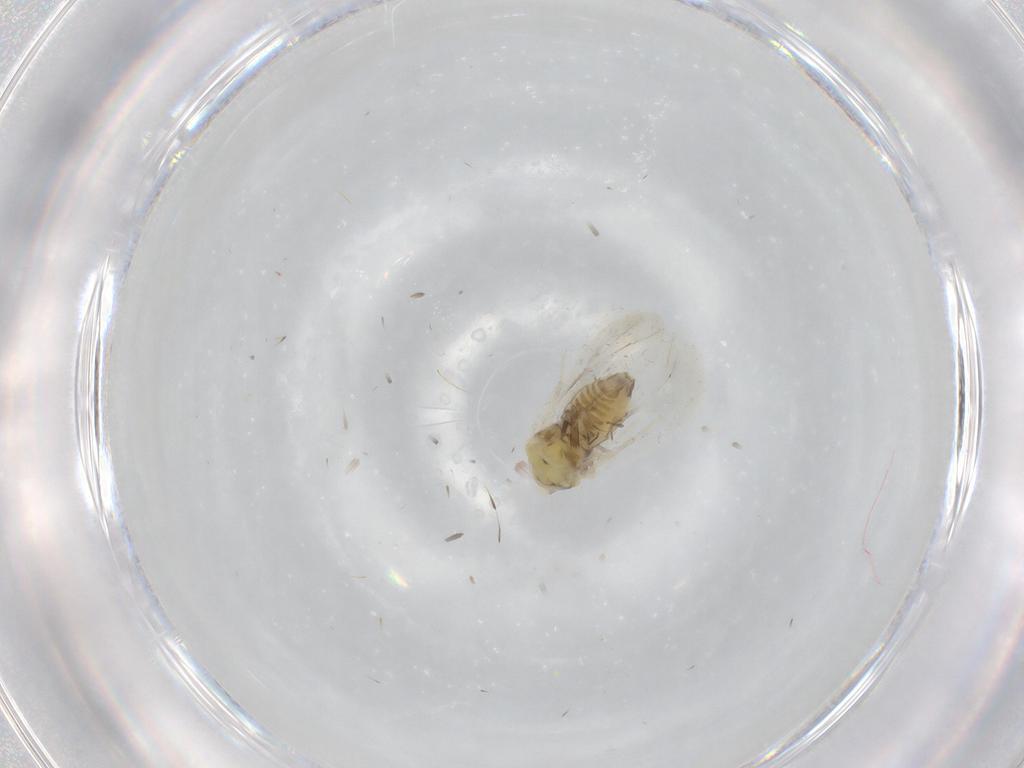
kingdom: Animalia
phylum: Arthropoda
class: Insecta
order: Hemiptera
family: Aleyrodidae
